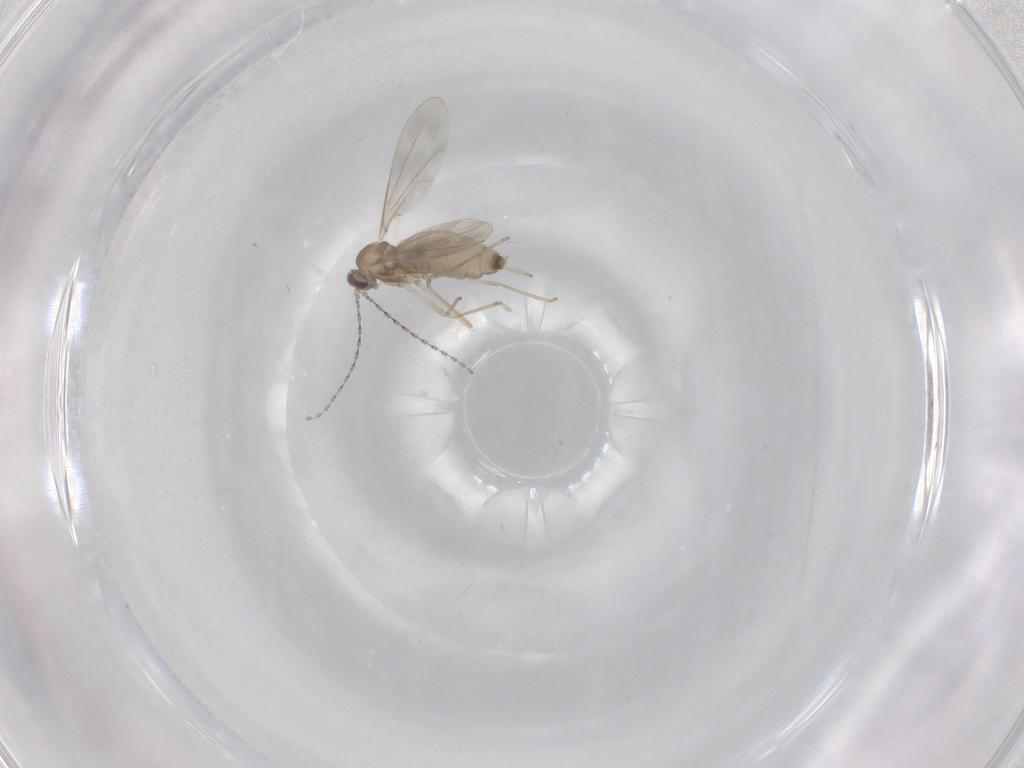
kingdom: Animalia
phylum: Arthropoda
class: Insecta
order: Diptera
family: Cecidomyiidae
